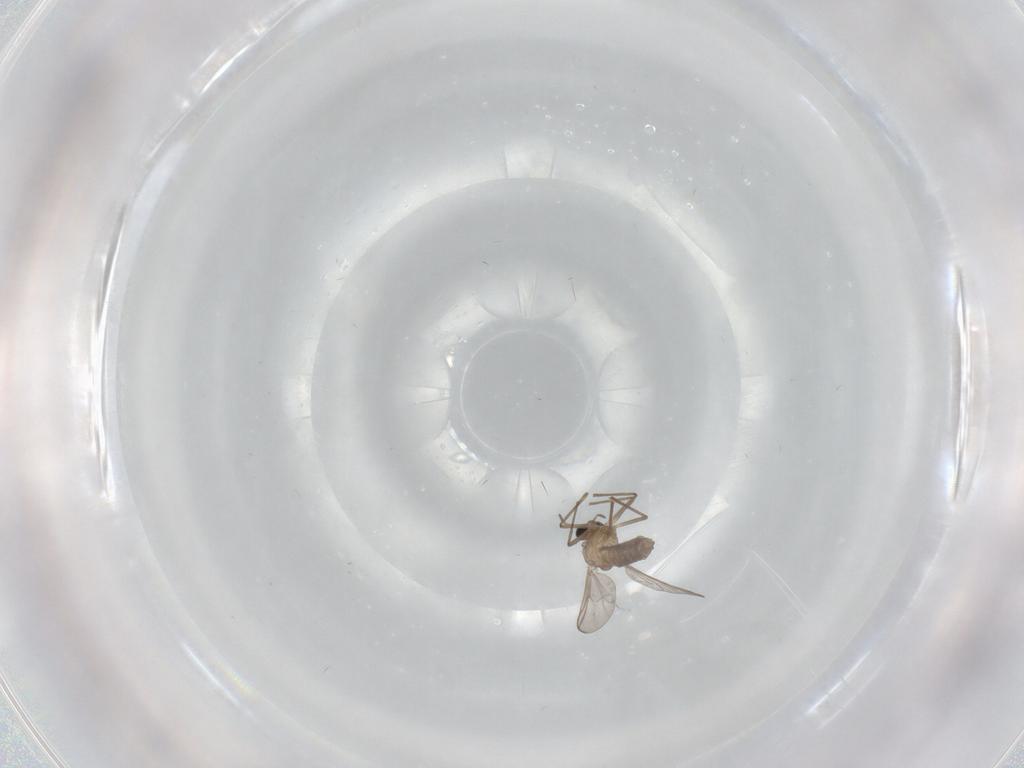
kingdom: Animalia
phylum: Arthropoda
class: Insecta
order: Diptera
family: Chironomidae
